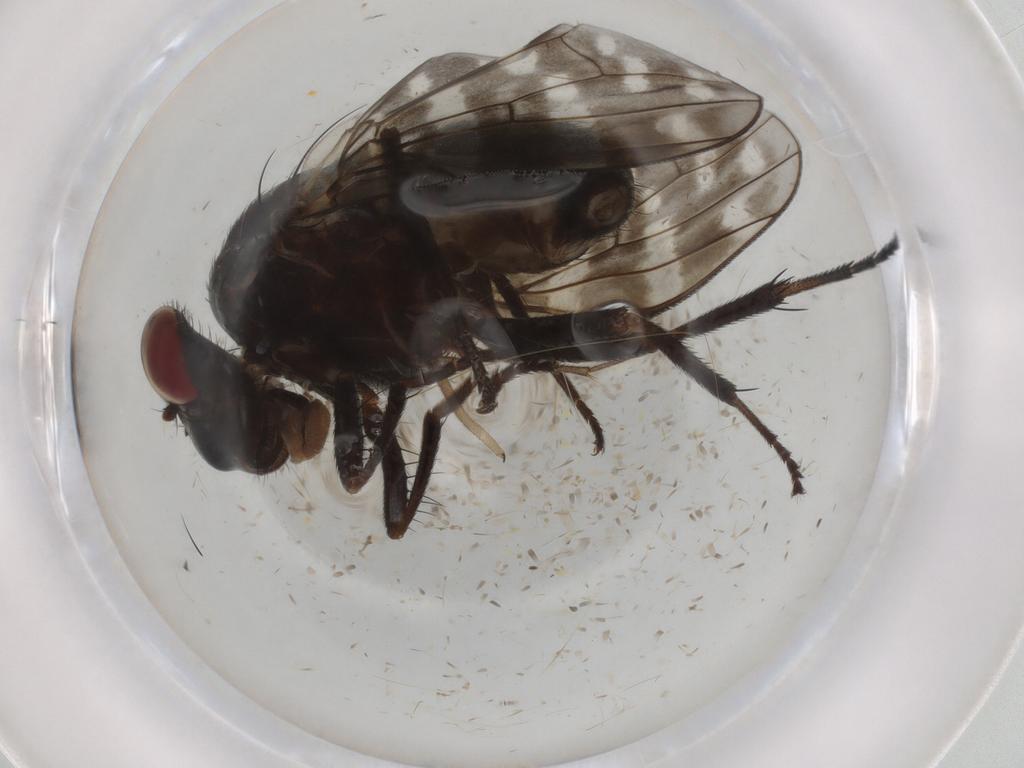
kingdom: Animalia
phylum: Arthropoda
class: Insecta
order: Diptera
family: Lauxaniidae
